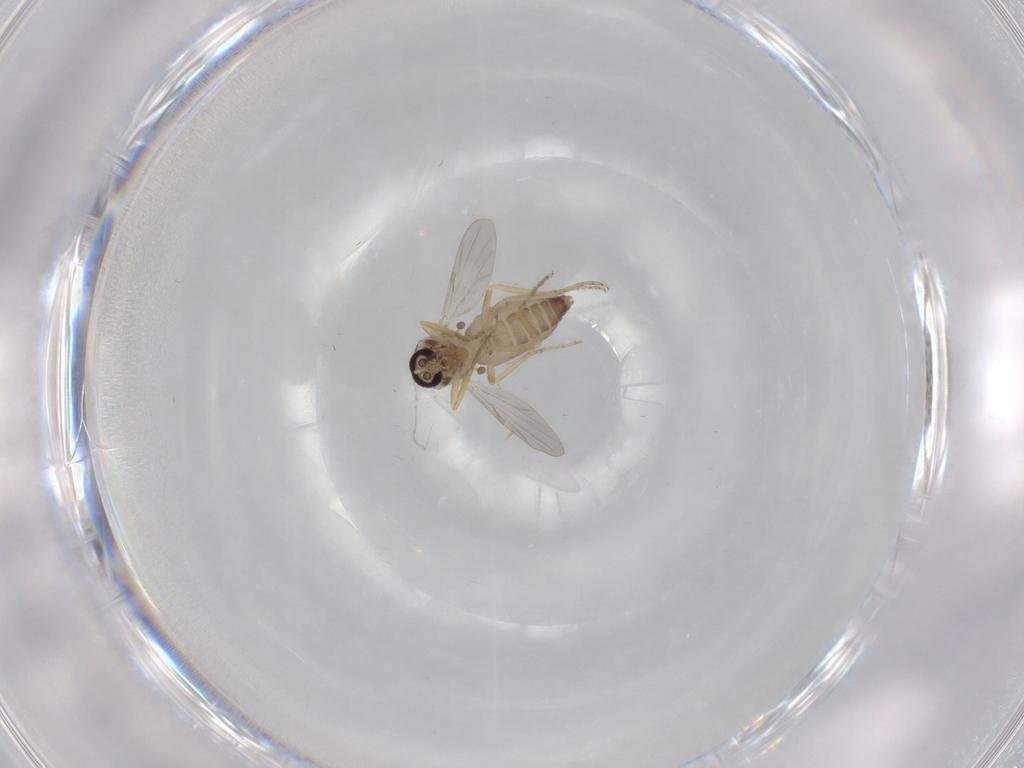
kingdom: Animalia
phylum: Arthropoda
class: Insecta
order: Diptera
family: Ceratopogonidae
